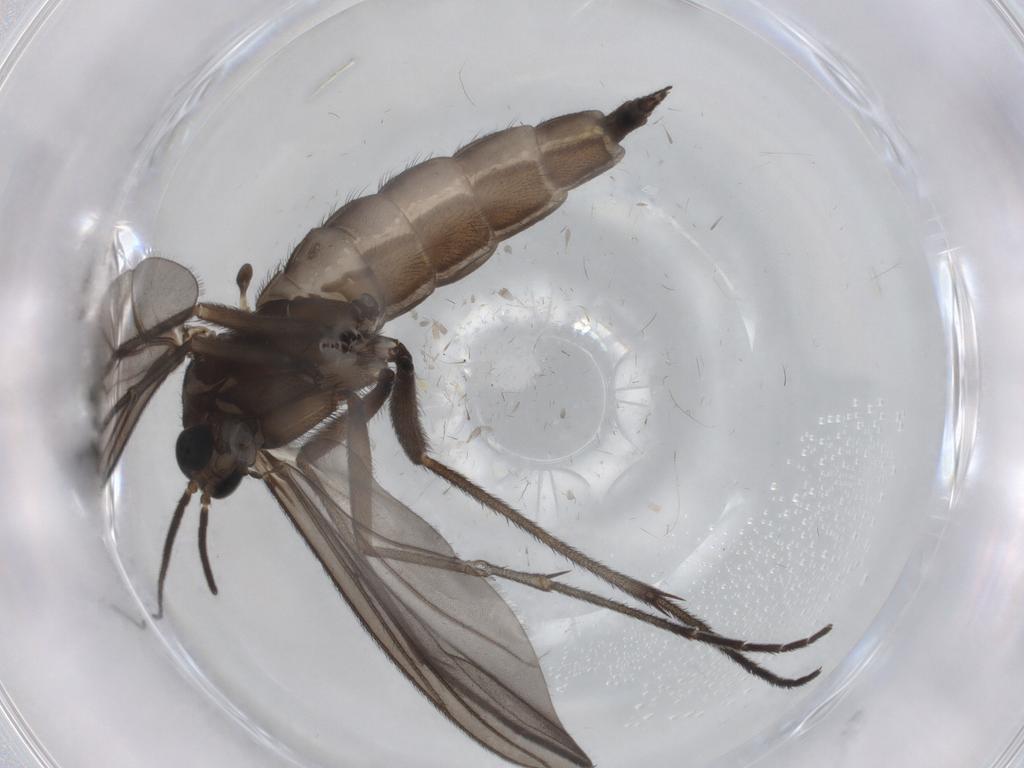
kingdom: Animalia
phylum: Arthropoda
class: Insecta
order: Diptera
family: Sciaridae
